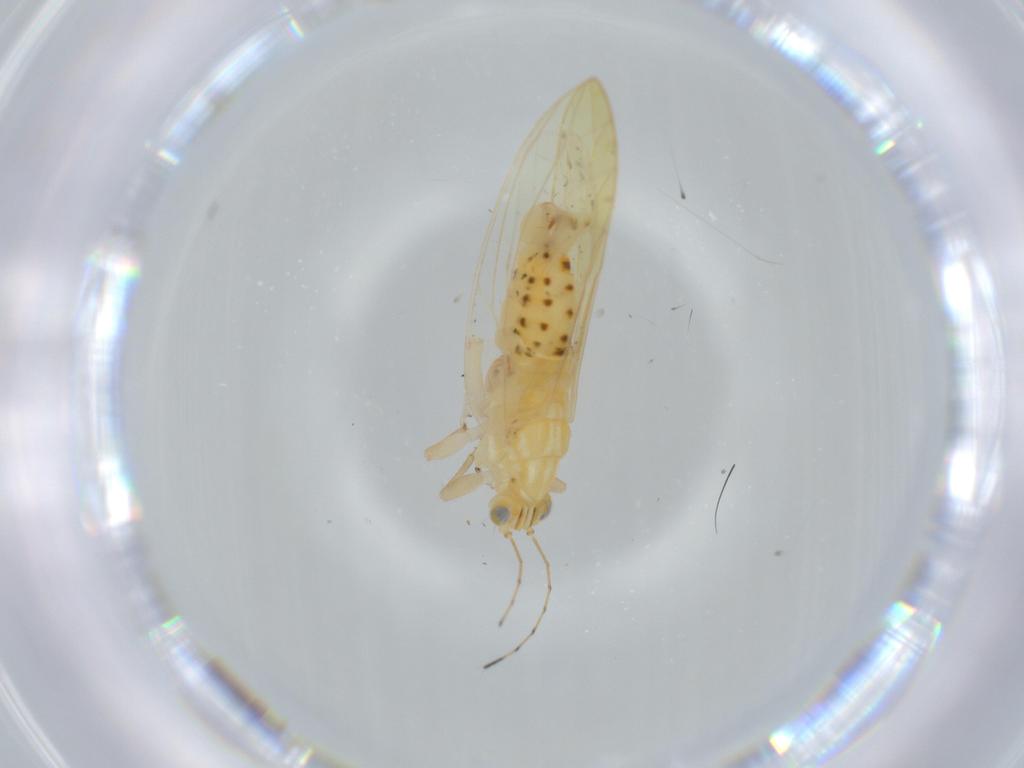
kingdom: Animalia
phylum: Arthropoda
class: Insecta
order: Hemiptera
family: Triozidae
